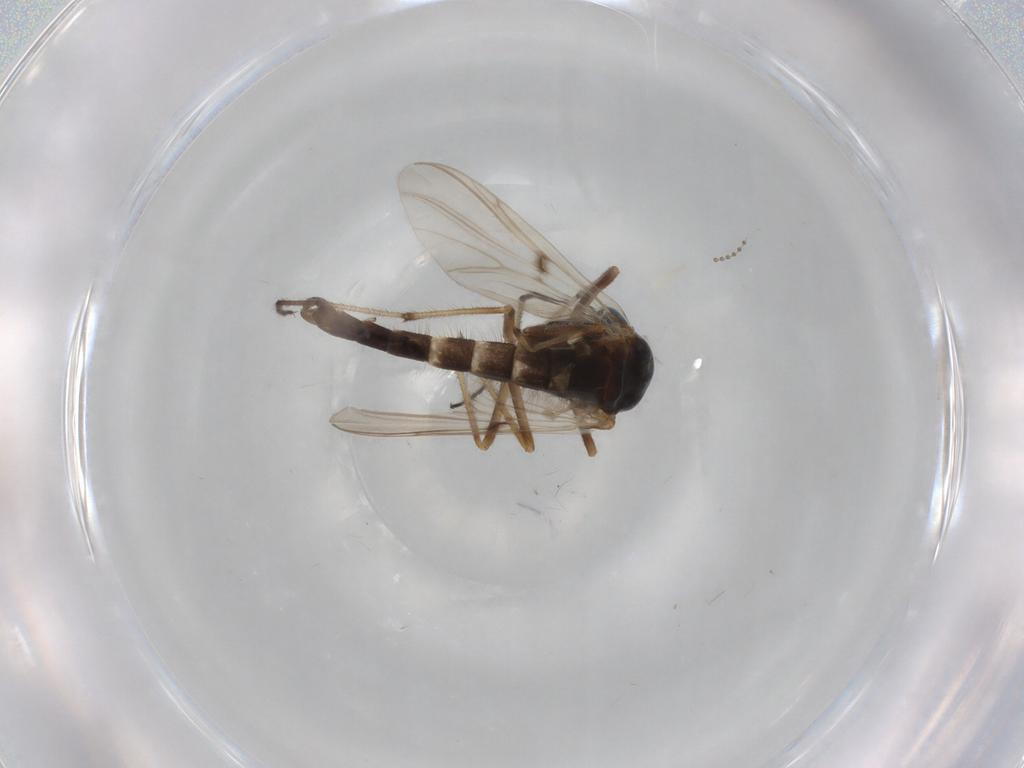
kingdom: Animalia
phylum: Arthropoda
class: Insecta
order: Diptera
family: Chironomidae
